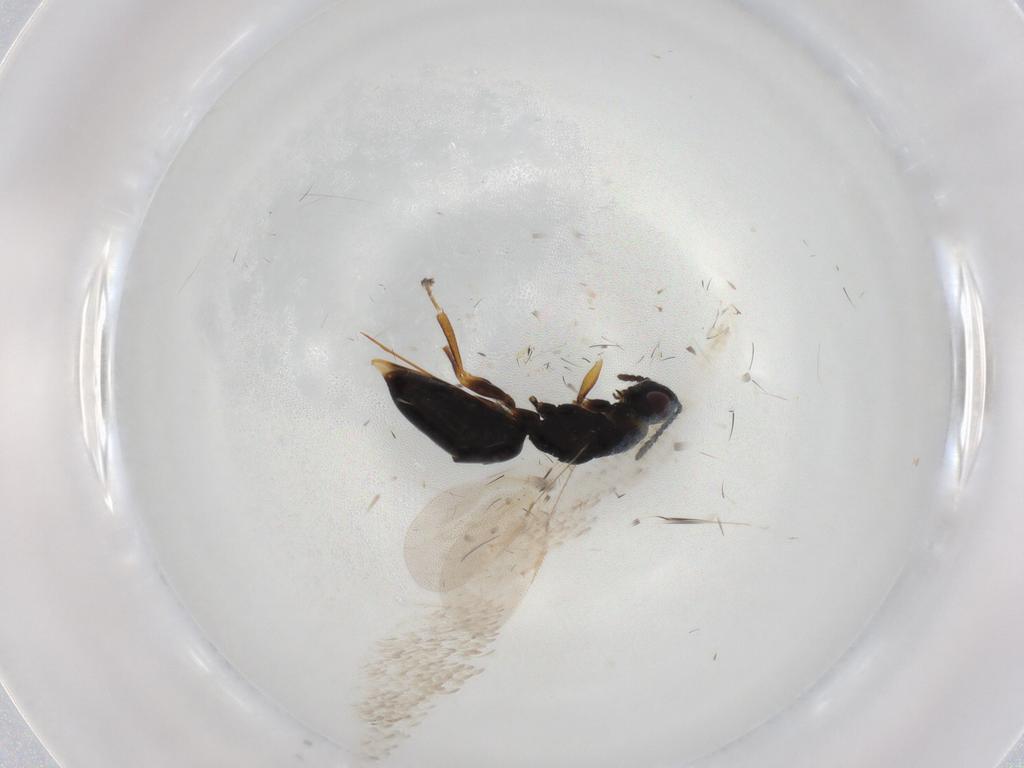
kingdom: Animalia
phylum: Arthropoda
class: Insecta
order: Hymenoptera
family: Eurytomidae
